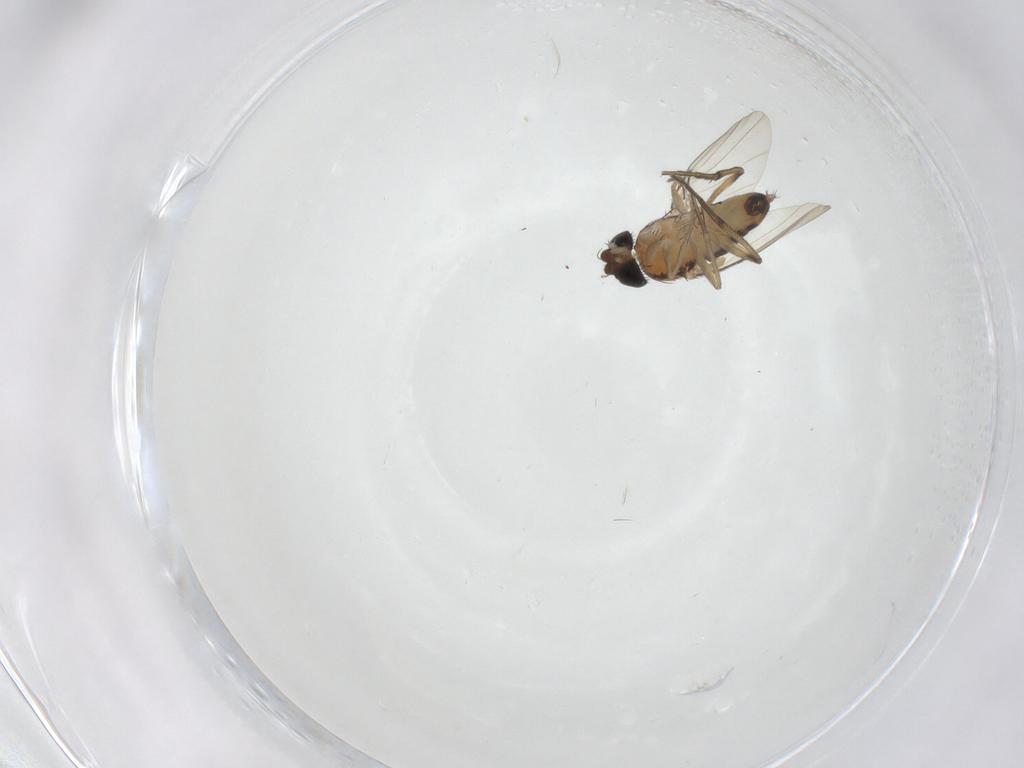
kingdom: Animalia
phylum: Arthropoda
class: Insecta
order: Diptera
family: Phoridae
